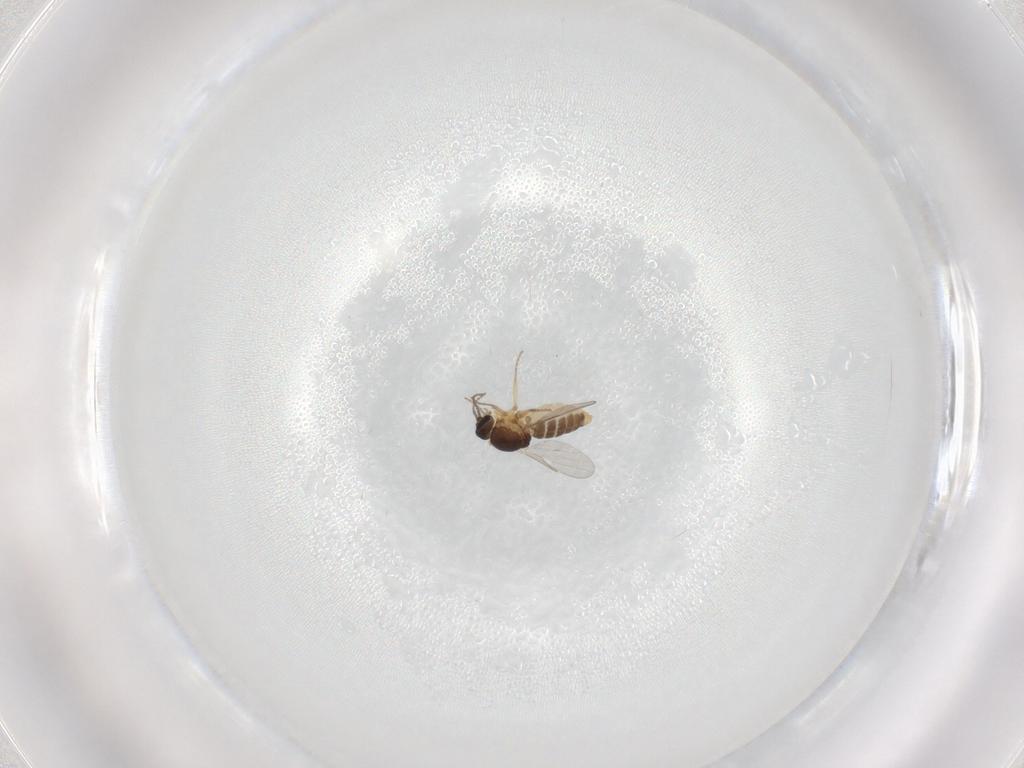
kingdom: Animalia
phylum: Arthropoda
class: Insecta
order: Diptera
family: Ceratopogonidae
